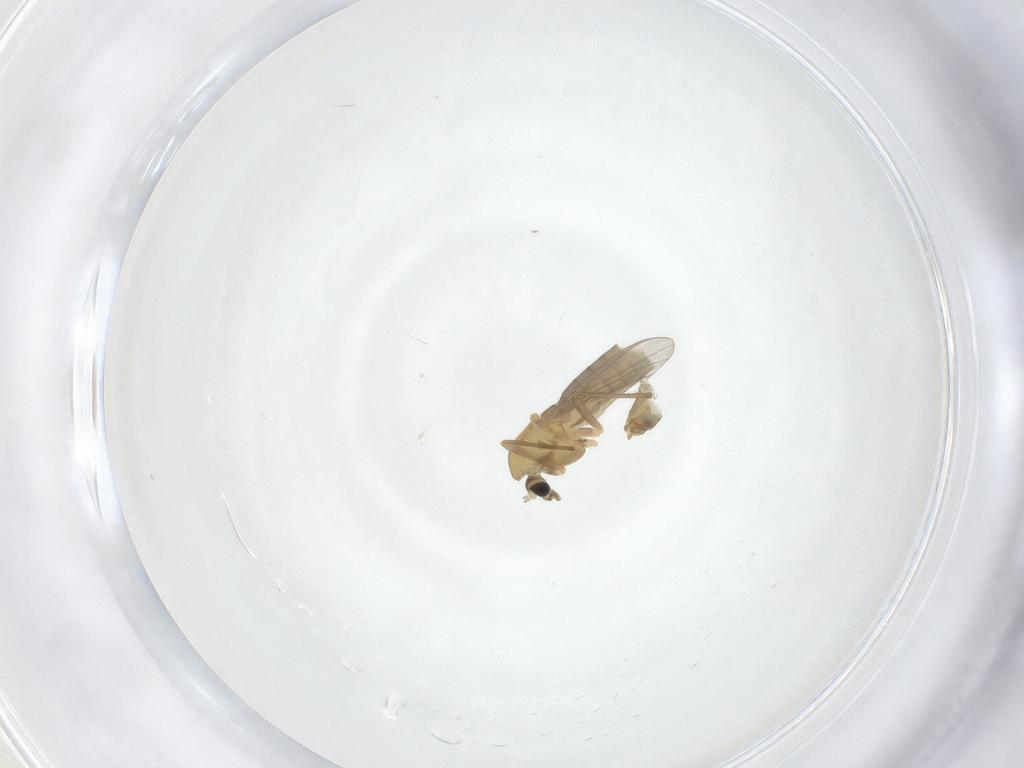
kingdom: Animalia
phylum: Arthropoda
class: Insecta
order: Diptera
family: Chironomidae
